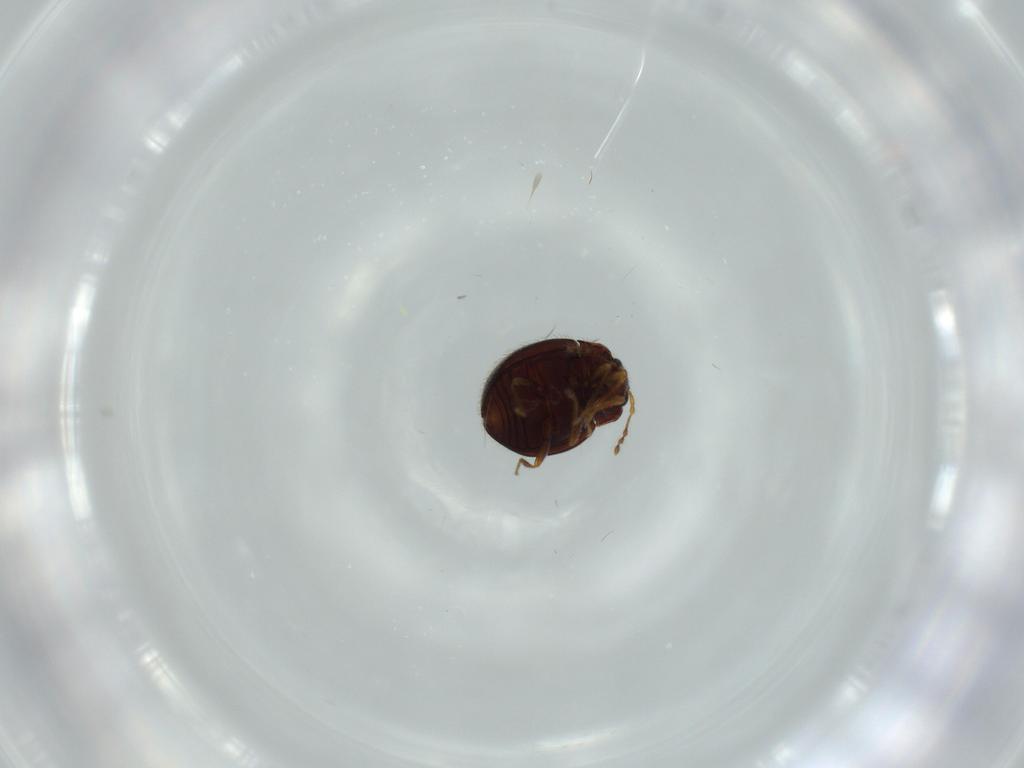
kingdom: Animalia
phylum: Arthropoda
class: Insecta
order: Coleoptera
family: Anamorphidae
